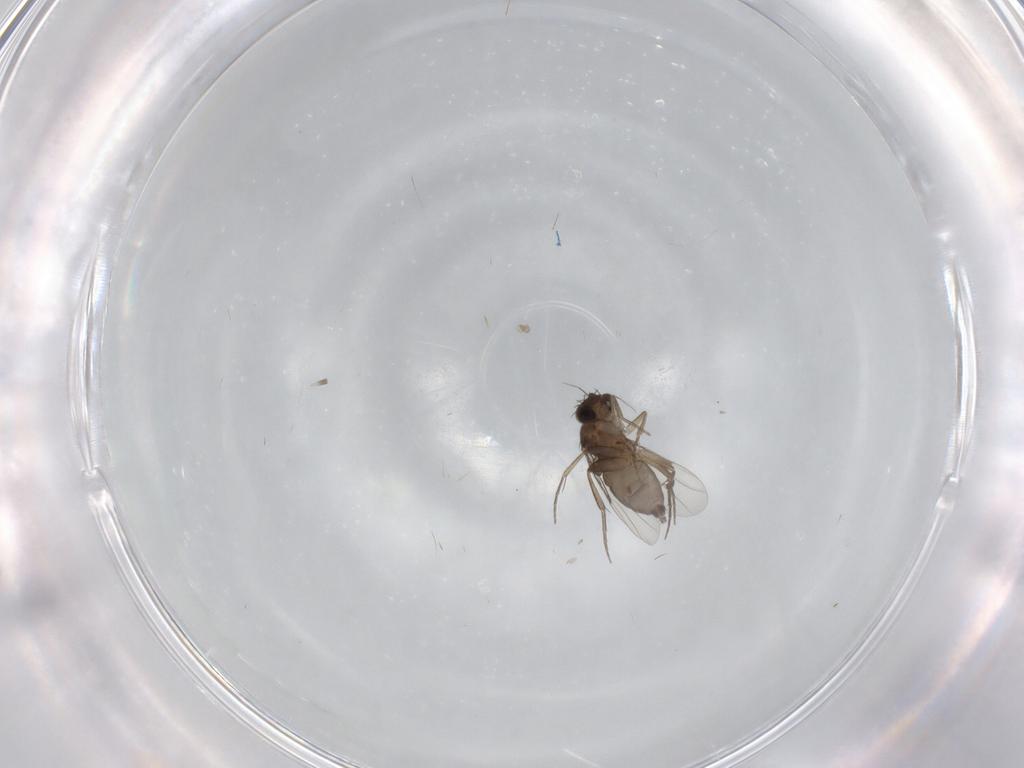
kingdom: Animalia
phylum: Arthropoda
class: Insecta
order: Diptera
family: Phoridae
